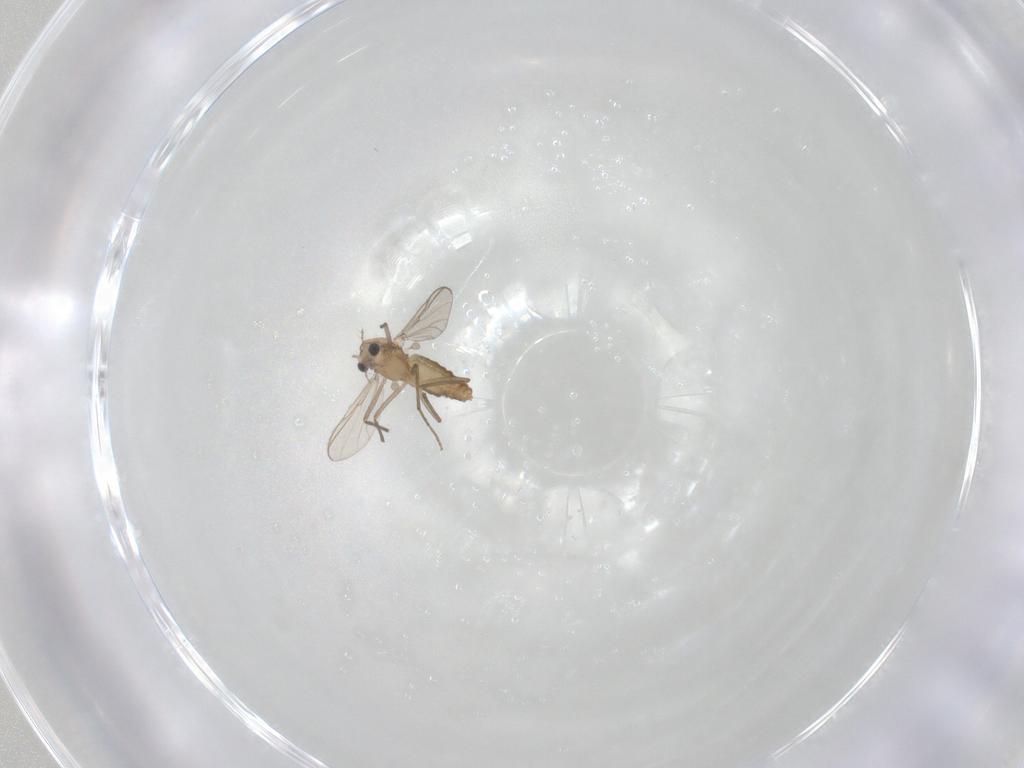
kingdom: Animalia
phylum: Arthropoda
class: Insecta
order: Diptera
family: Chironomidae
